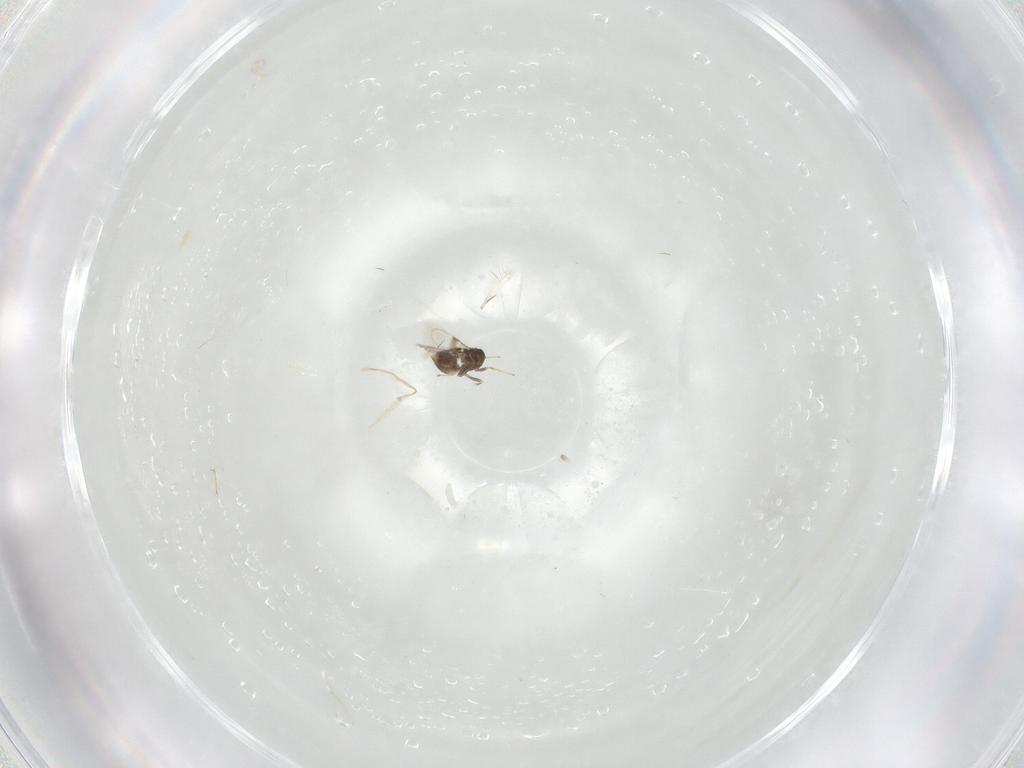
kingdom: Animalia
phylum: Arthropoda
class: Insecta
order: Hymenoptera
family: Azotidae
